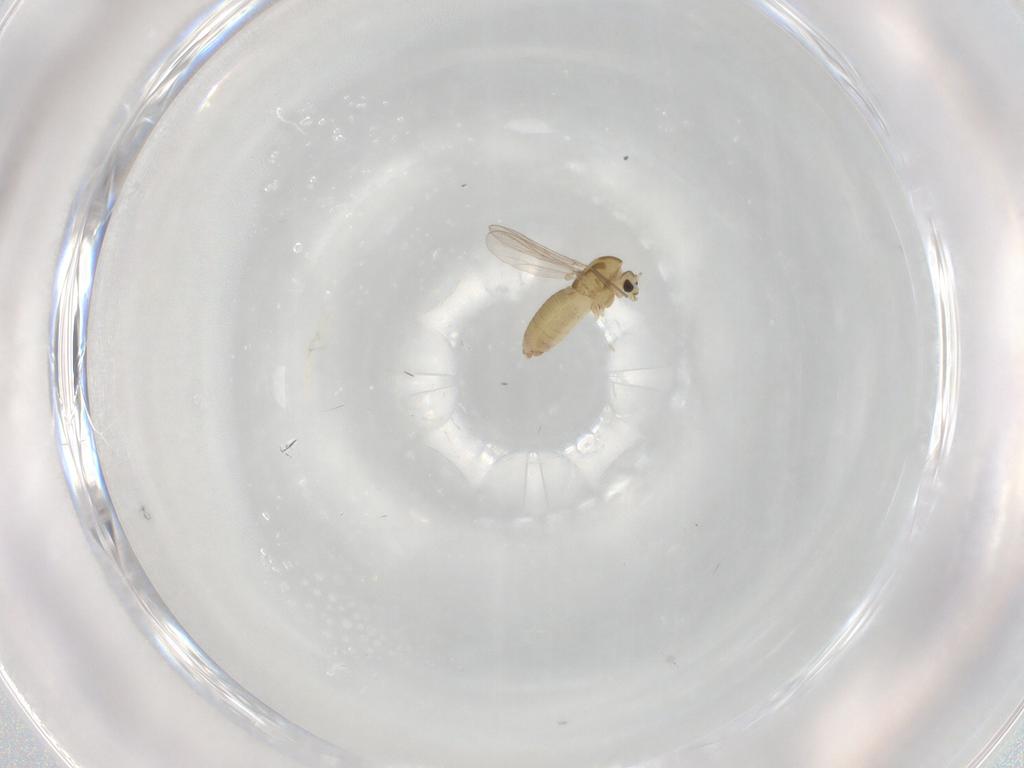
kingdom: Animalia
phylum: Arthropoda
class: Insecta
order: Diptera
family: Chironomidae
